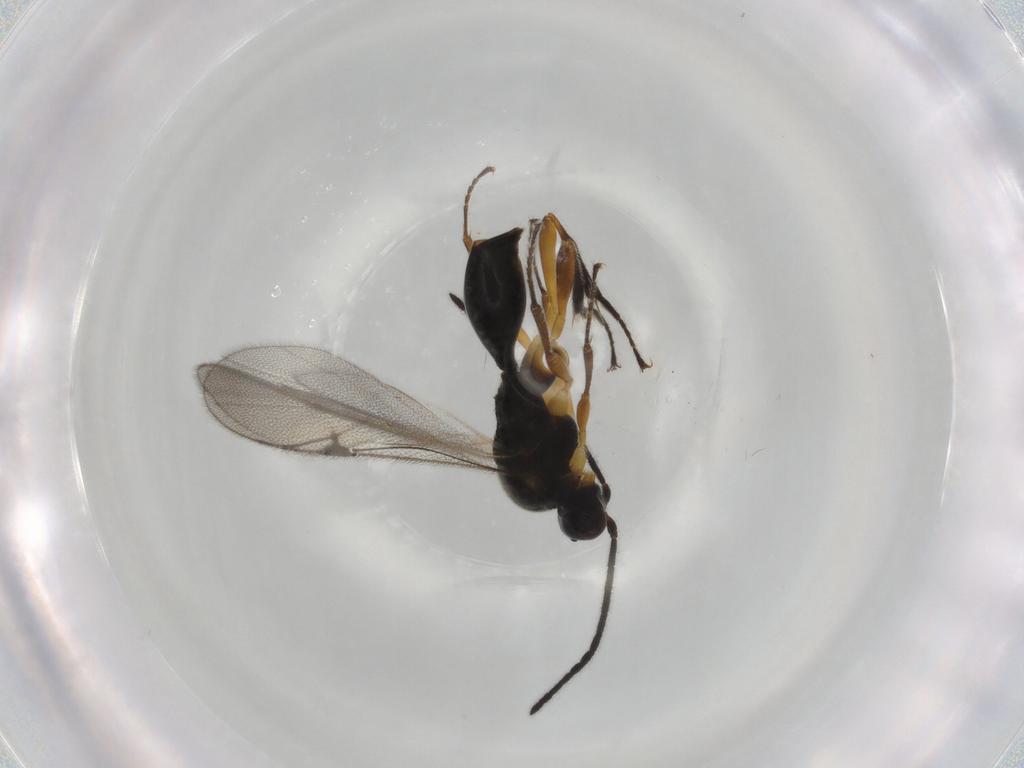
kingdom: Animalia
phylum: Arthropoda
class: Insecta
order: Hymenoptera
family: Proctotrupidae
